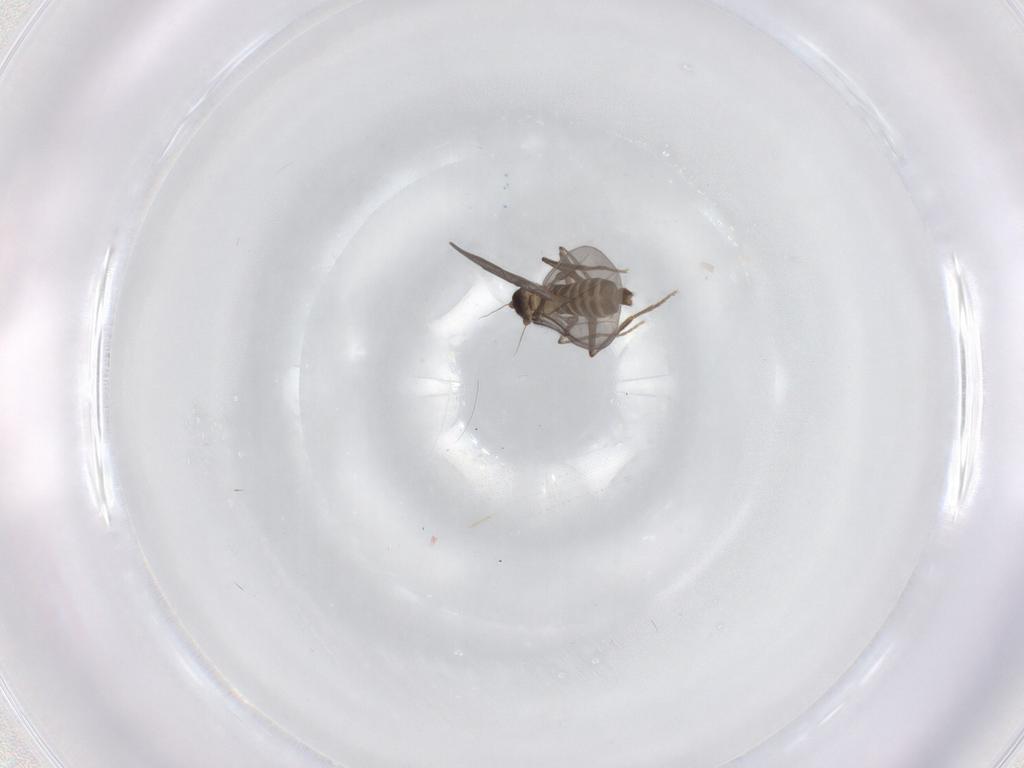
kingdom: Animalia
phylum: Arthropoda
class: Insecta
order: Diptera
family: Phoridae
